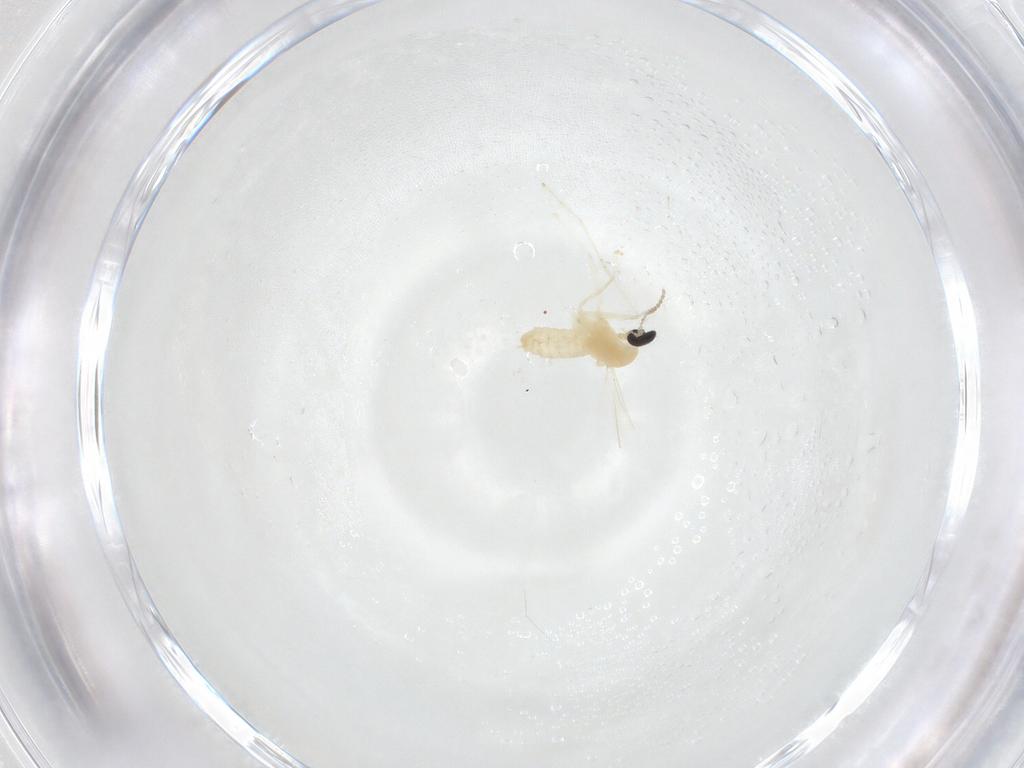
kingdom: Animalia
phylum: Arthropoda
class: Insecta
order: Diptera
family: Cecidomyiidae
